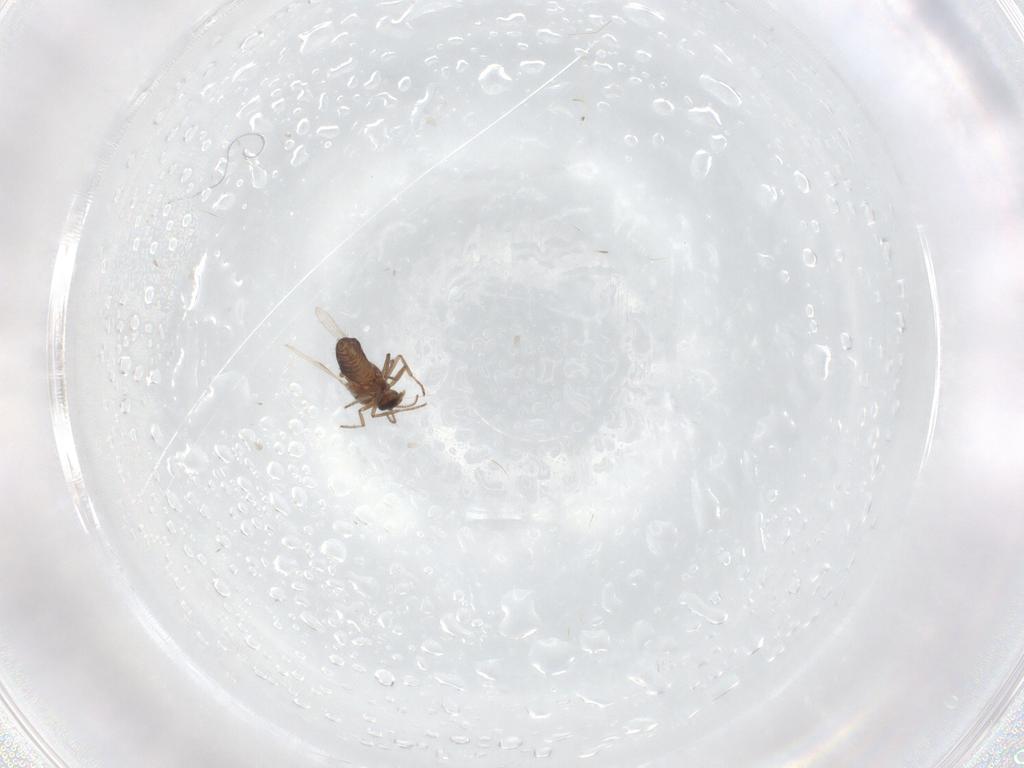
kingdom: Animalia
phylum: Arthropoda
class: Insecta
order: Diptera
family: Ceratopogonidae
